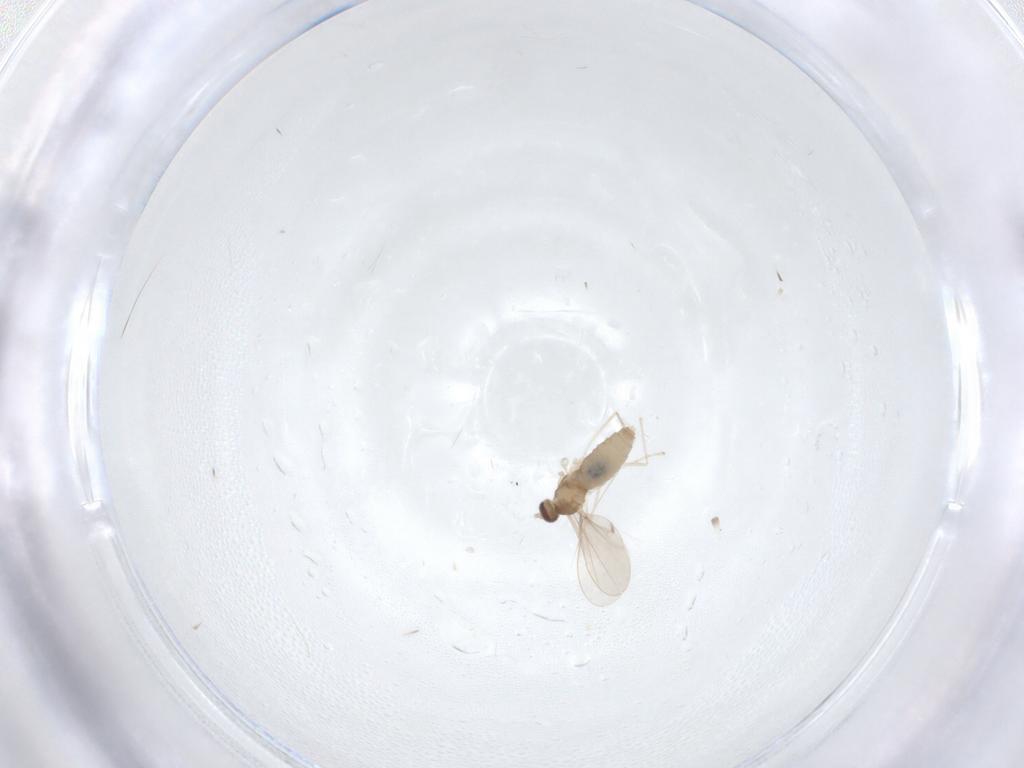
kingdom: Animalia
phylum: Arthropoda
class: Insecta
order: Diptera
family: Cecidomyiidae
